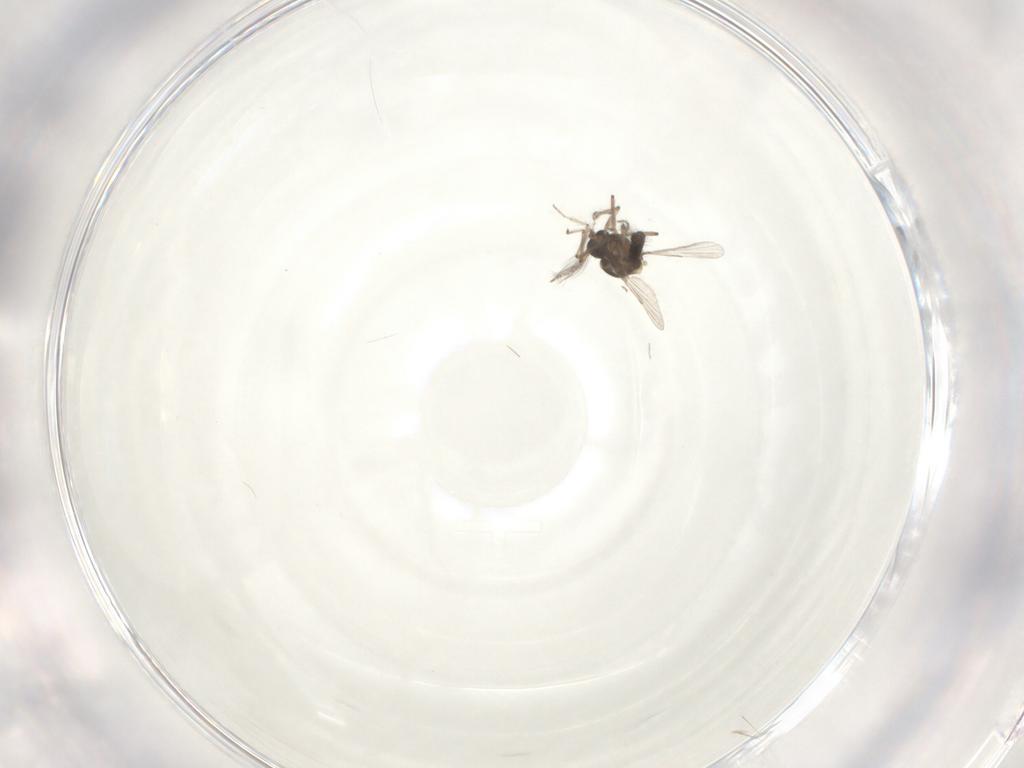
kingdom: Animalia
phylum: Arthropoda
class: Insecta
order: Diptera
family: Ceratopogonidae
